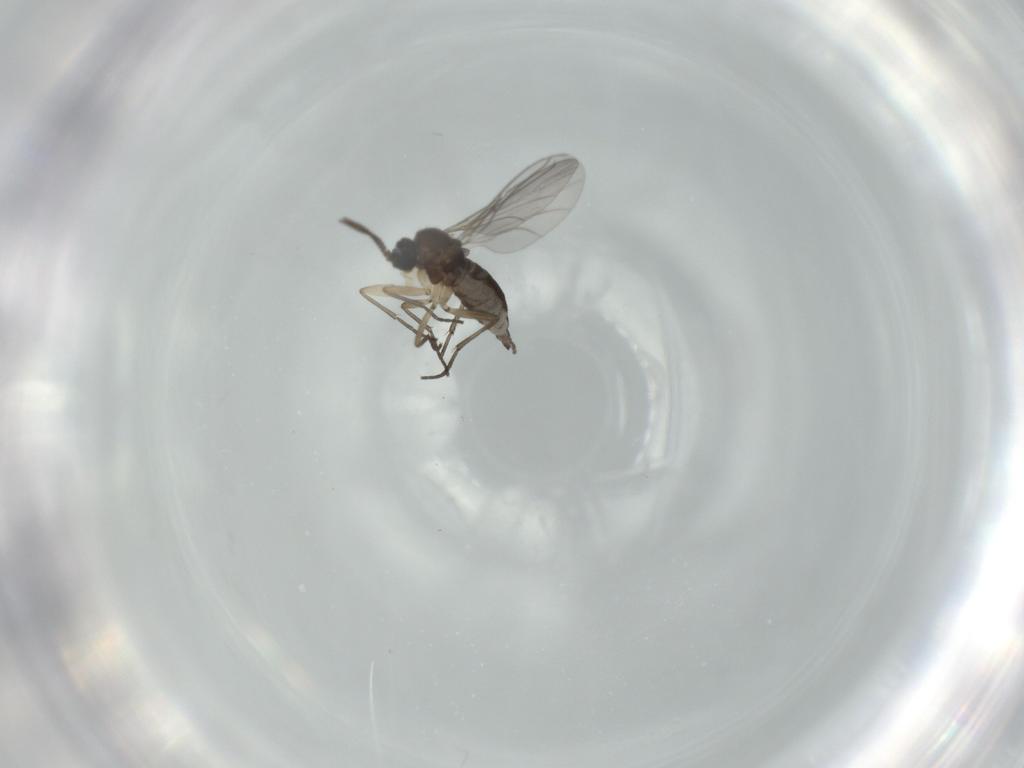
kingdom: Animalia
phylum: Arthropoda
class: Insecta
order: Diptera
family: Sciaridae
